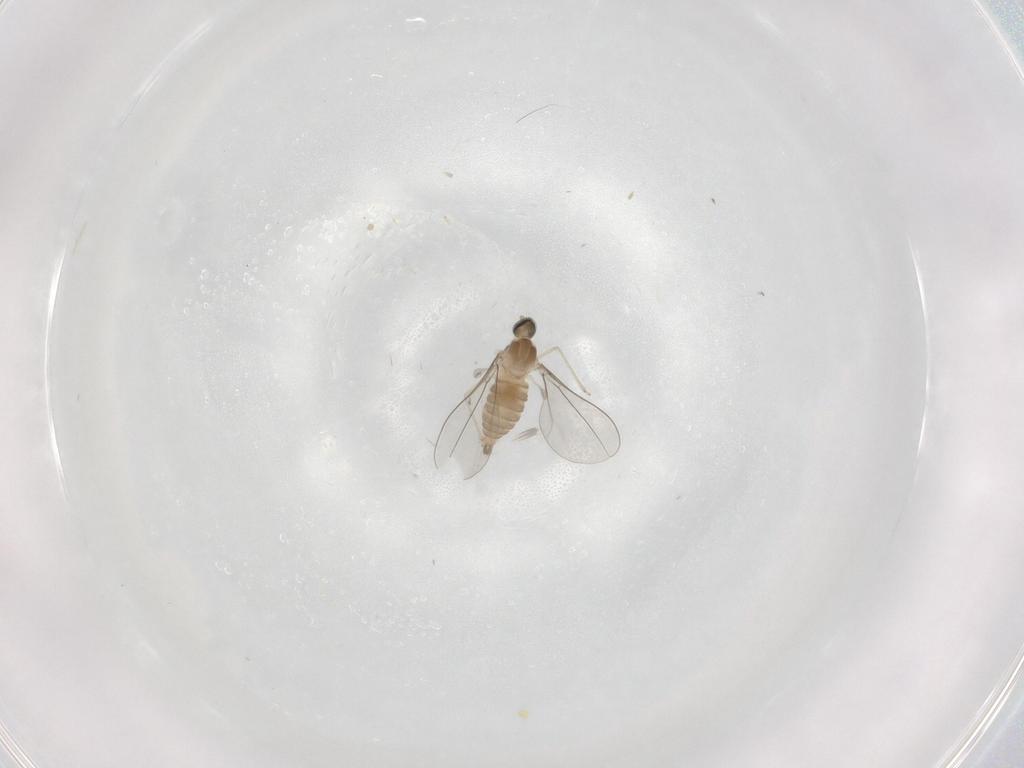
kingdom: Animalia
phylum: Arthropoda
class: Insecta
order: Diptera
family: Cecidomyiidae
